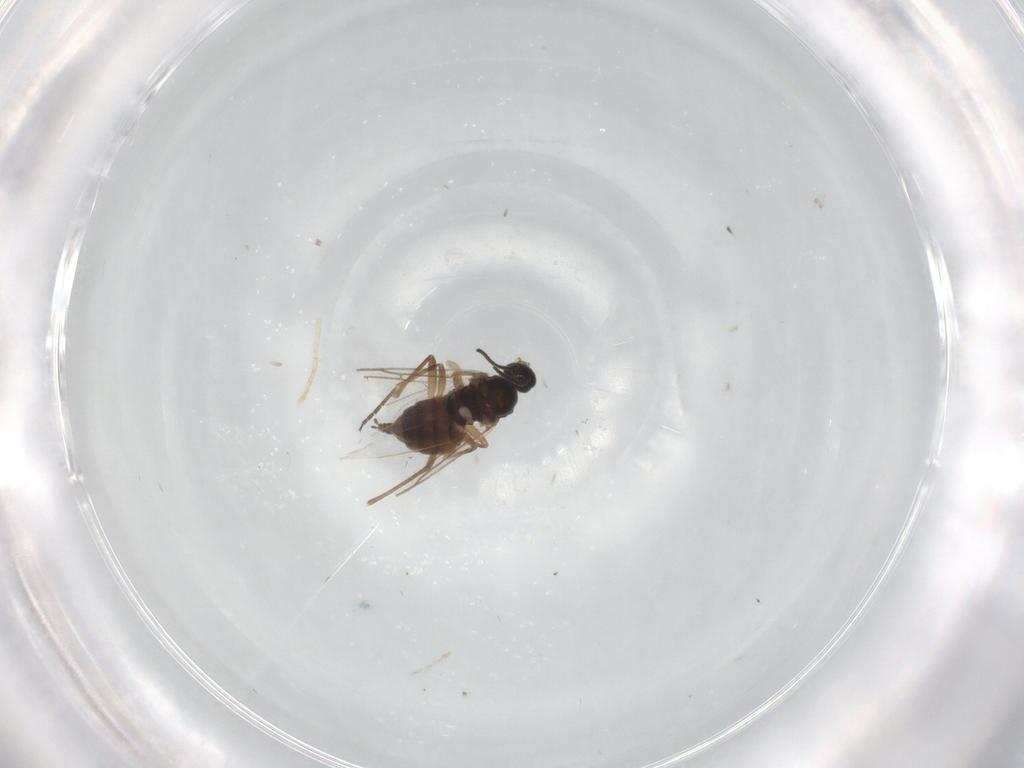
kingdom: Animalia
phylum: Arthropoda
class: Insecta
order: Diptera
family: Sciaridae
